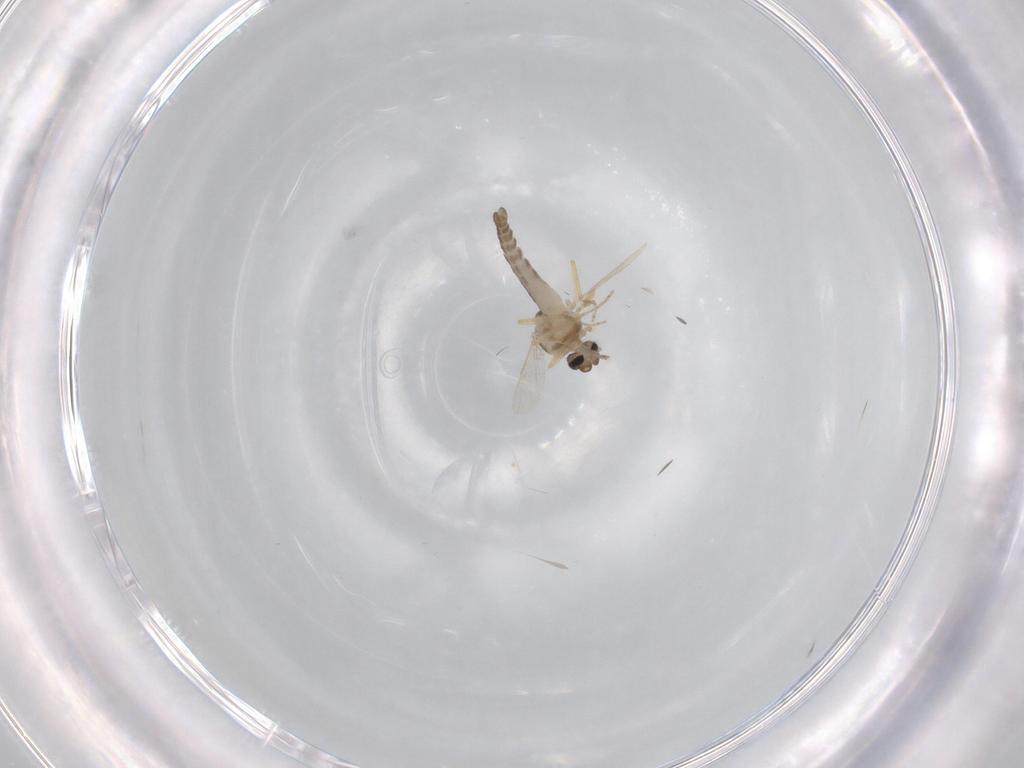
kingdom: Animalia
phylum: Arthropoda
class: Insecta
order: Diptera
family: Ceratopogonidae
